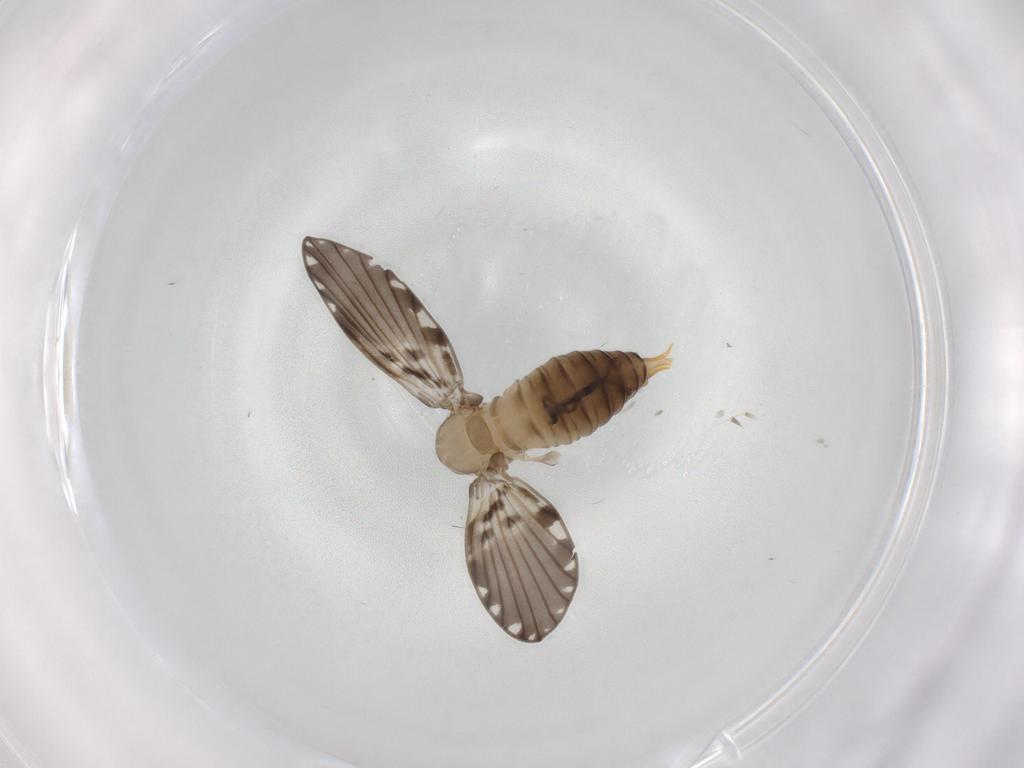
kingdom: Animalia
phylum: Arthropoda
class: Insecta
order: Diptera
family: Psychodidae
